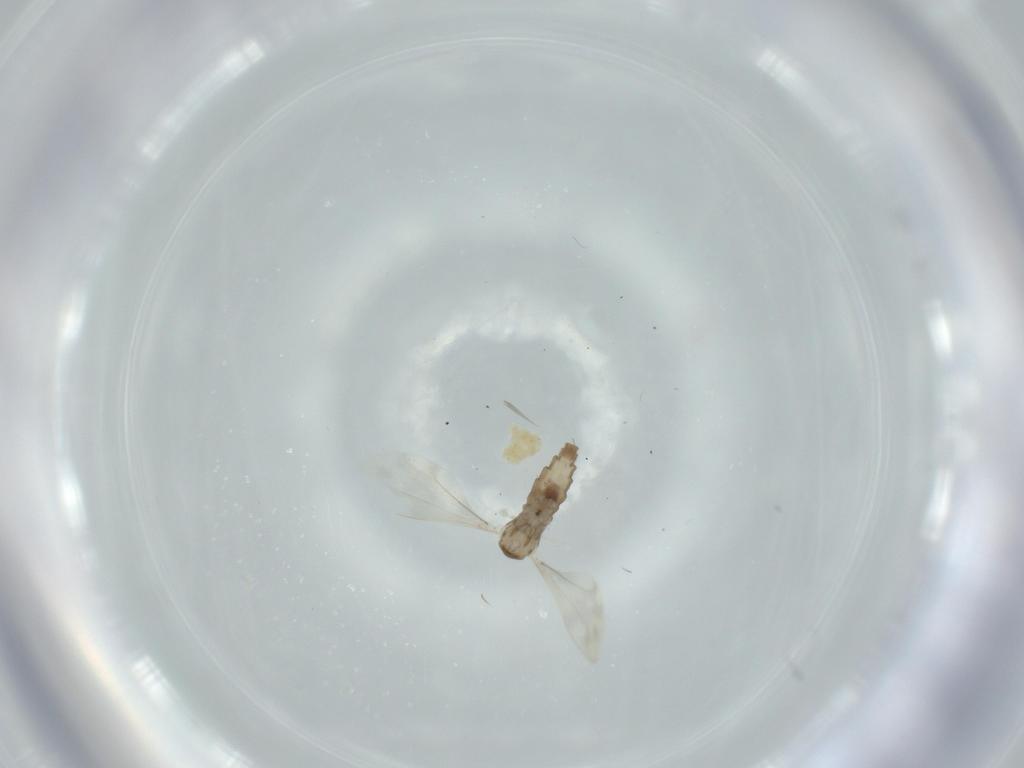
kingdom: Animalia
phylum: Arthropoda
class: Insecta
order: Diptera
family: Cecidomyiidae
